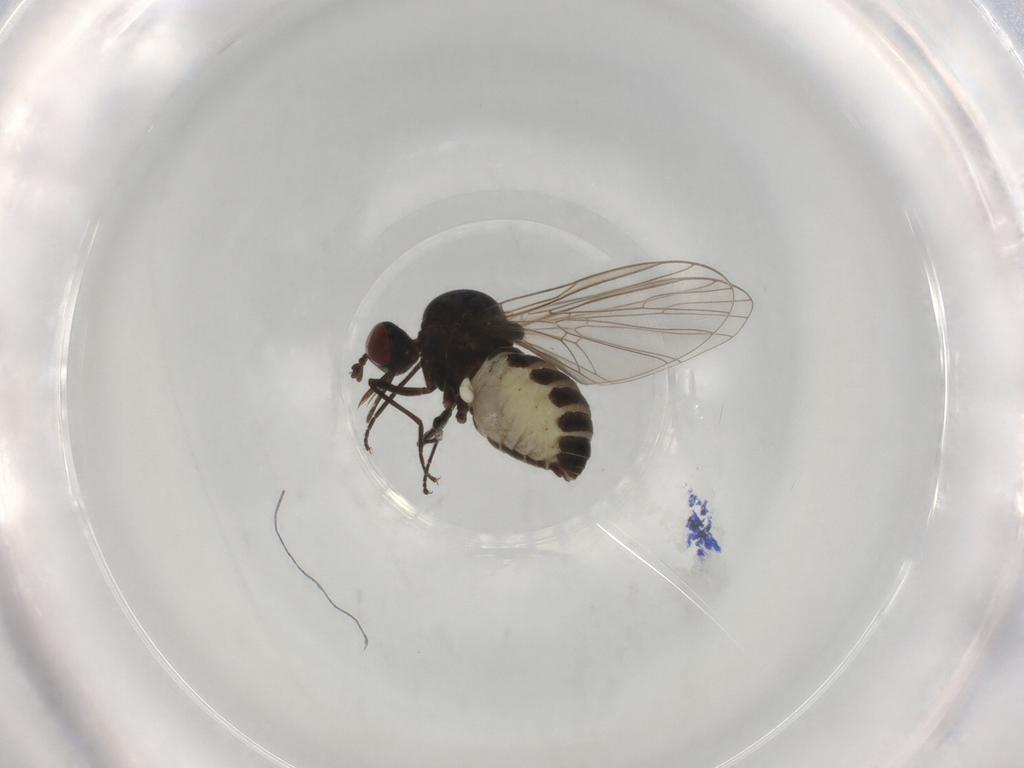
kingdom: Animalia
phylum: Arthropoda
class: Insecta
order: Diptera
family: Bombyliidae
